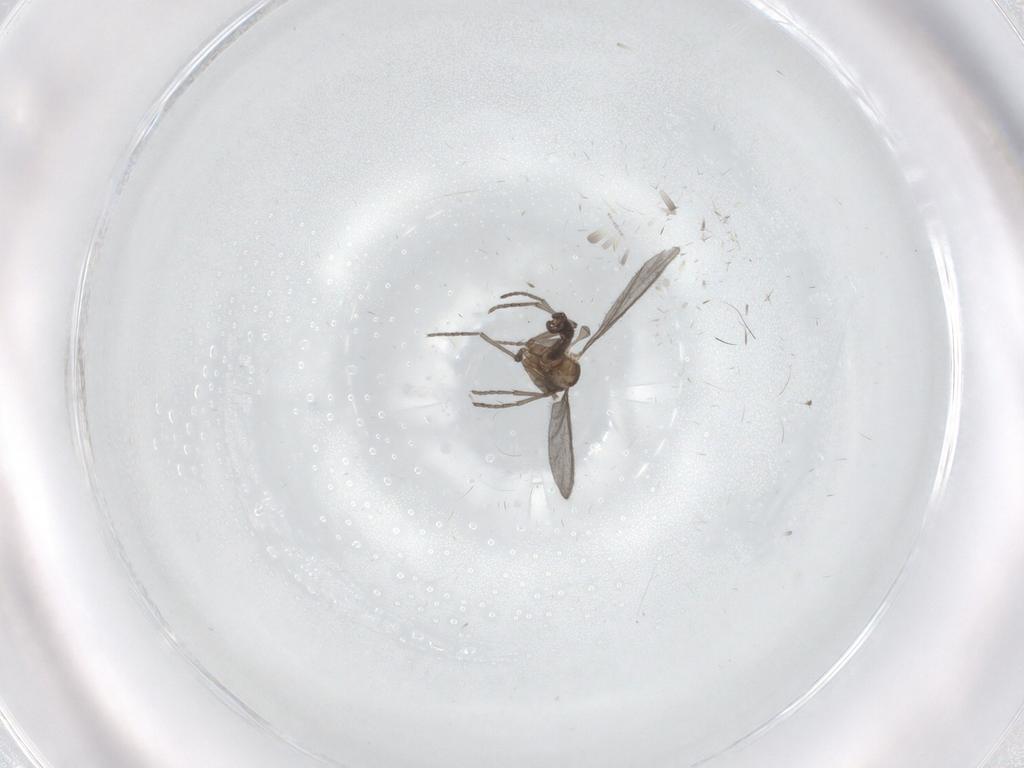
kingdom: Animalia
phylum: Arthropoda
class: Insecta
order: Diptera
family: Sciaridae
